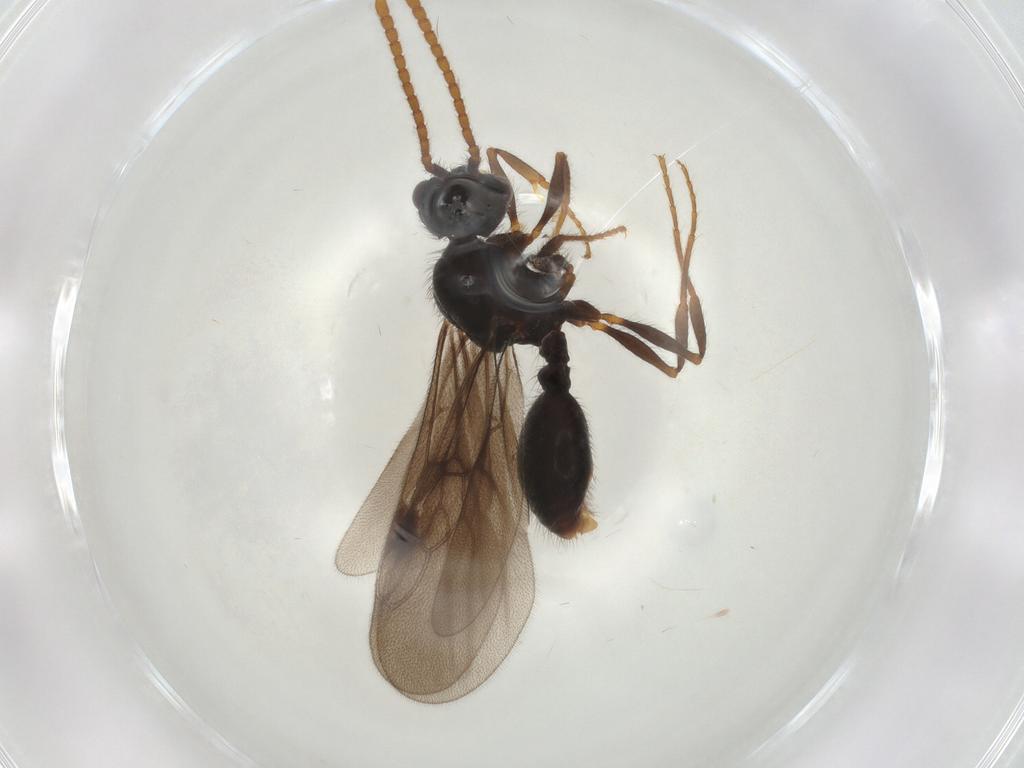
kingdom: Animalia
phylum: Arthropoda
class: Insecta
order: Hymenoptera
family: Formicidae
